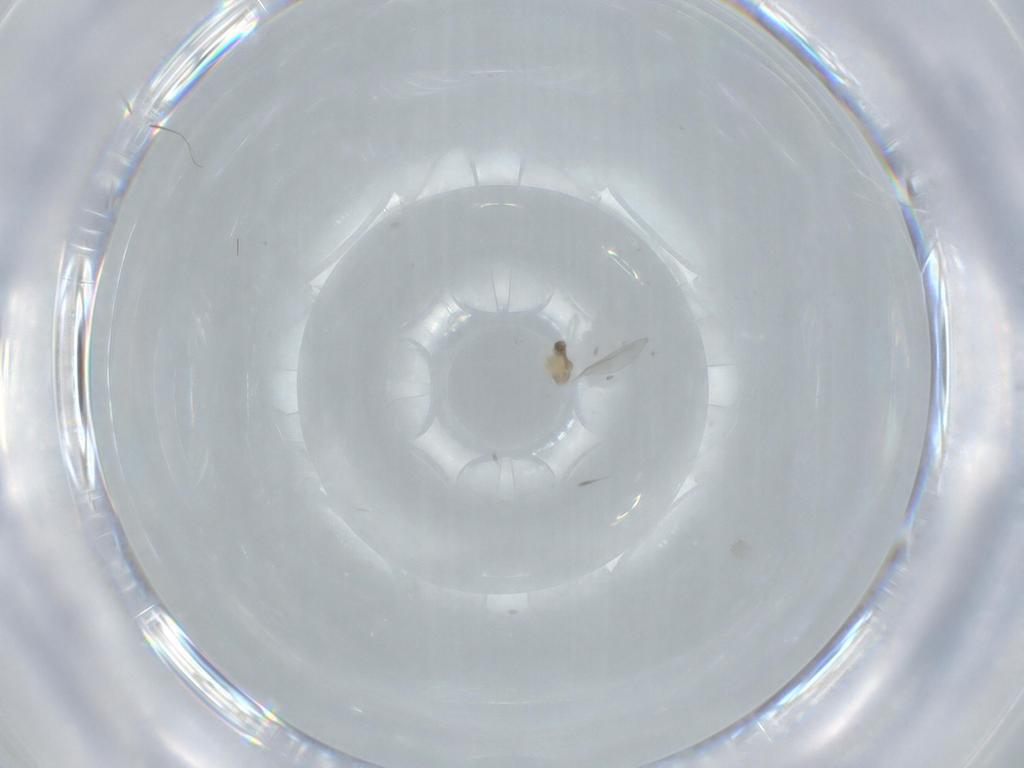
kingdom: Animalia
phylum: Arthropoda
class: Insecta
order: Diptera
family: Cecidomyiidae
